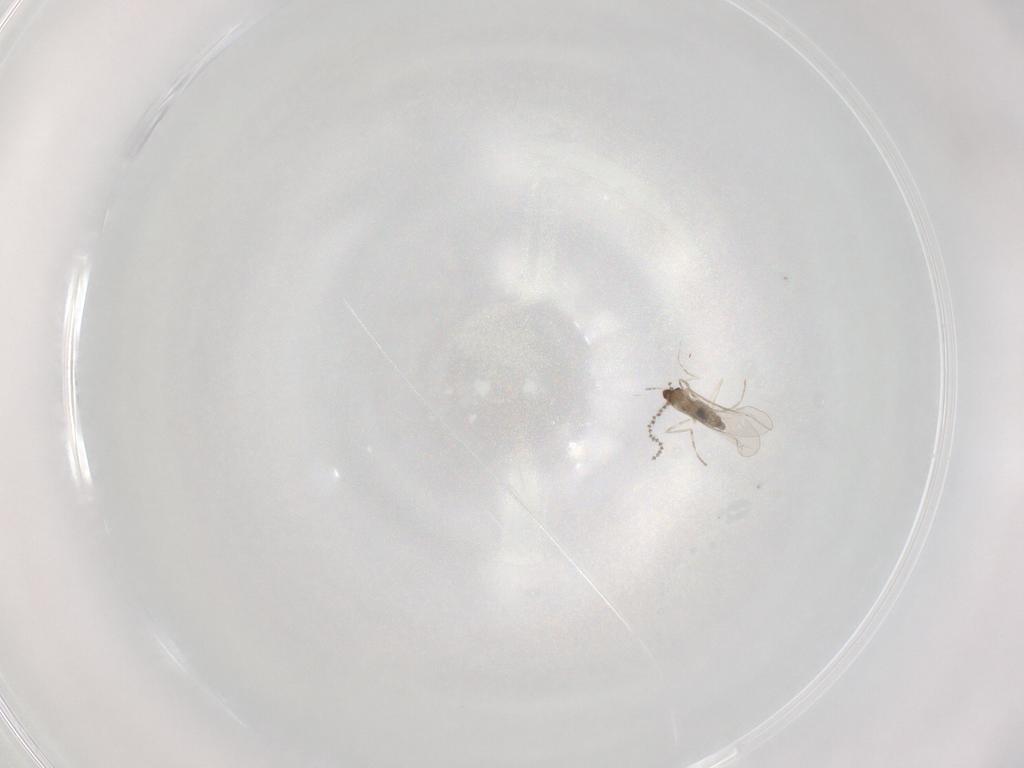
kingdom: Animalia
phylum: Arthropoda
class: Insecta
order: Diptera
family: Cecidomyiidae
